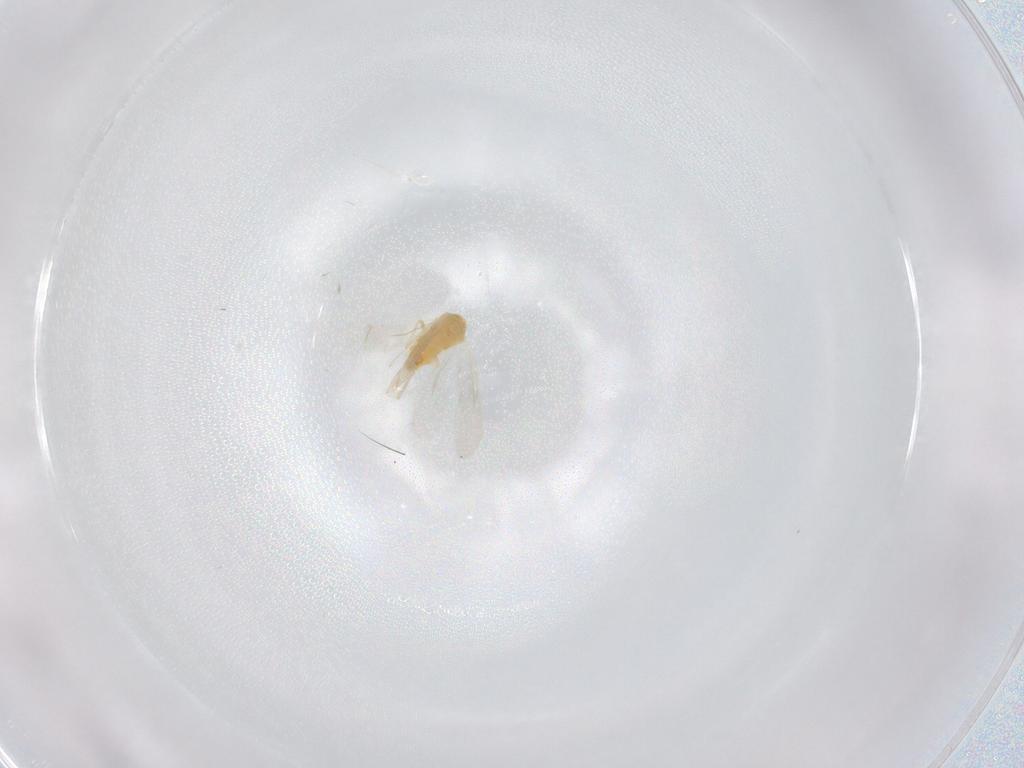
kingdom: Animalia
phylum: Arthropoda
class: Insecta
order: Hemiptera
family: Aleyrodidae
